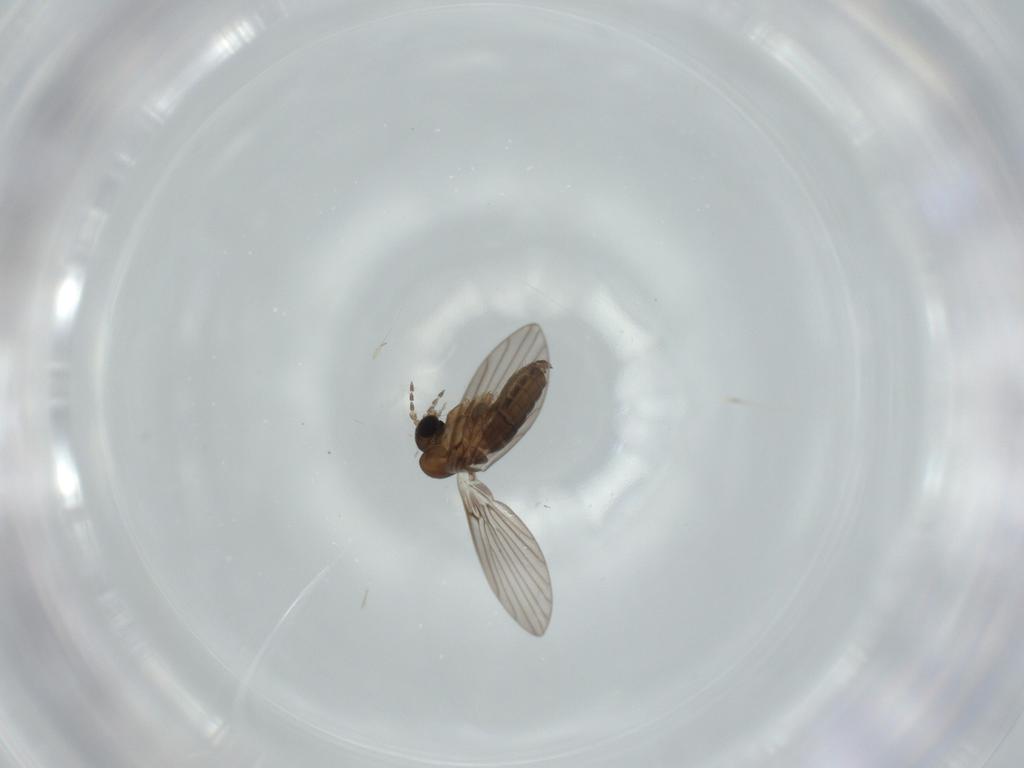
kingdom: Animalia
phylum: Arthropoda
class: Insecta
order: Diptera
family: Psychodidae
